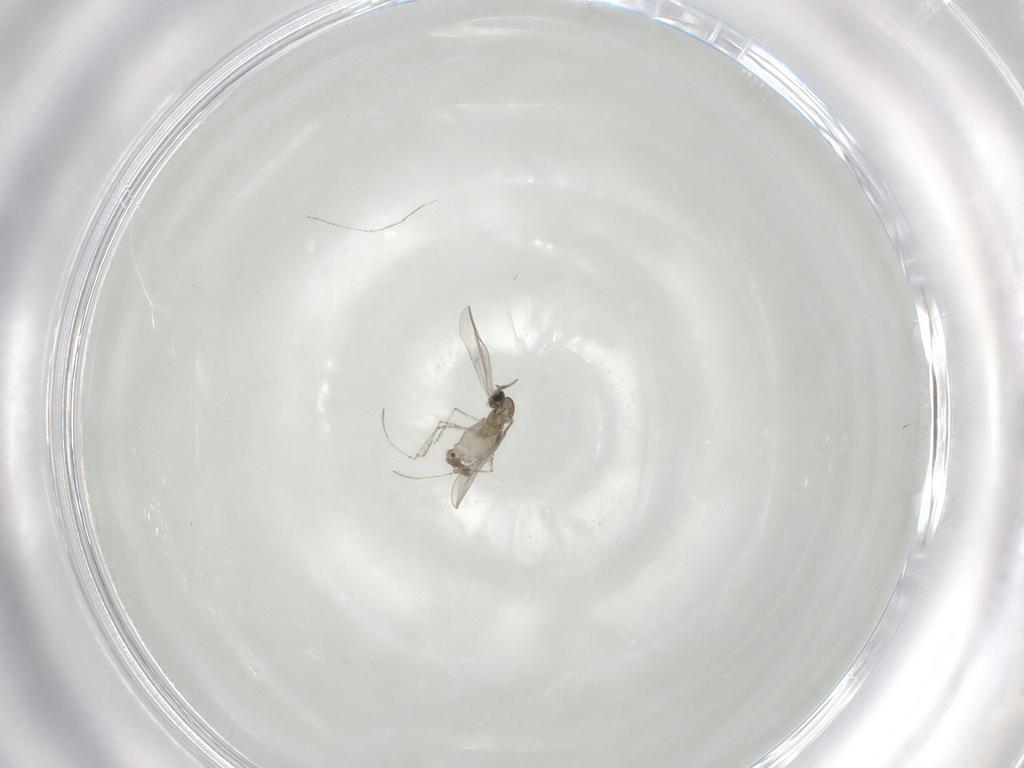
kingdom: Animalia
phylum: Arthropoda
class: Insecta
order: Diptera
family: Cecidomyiidae
